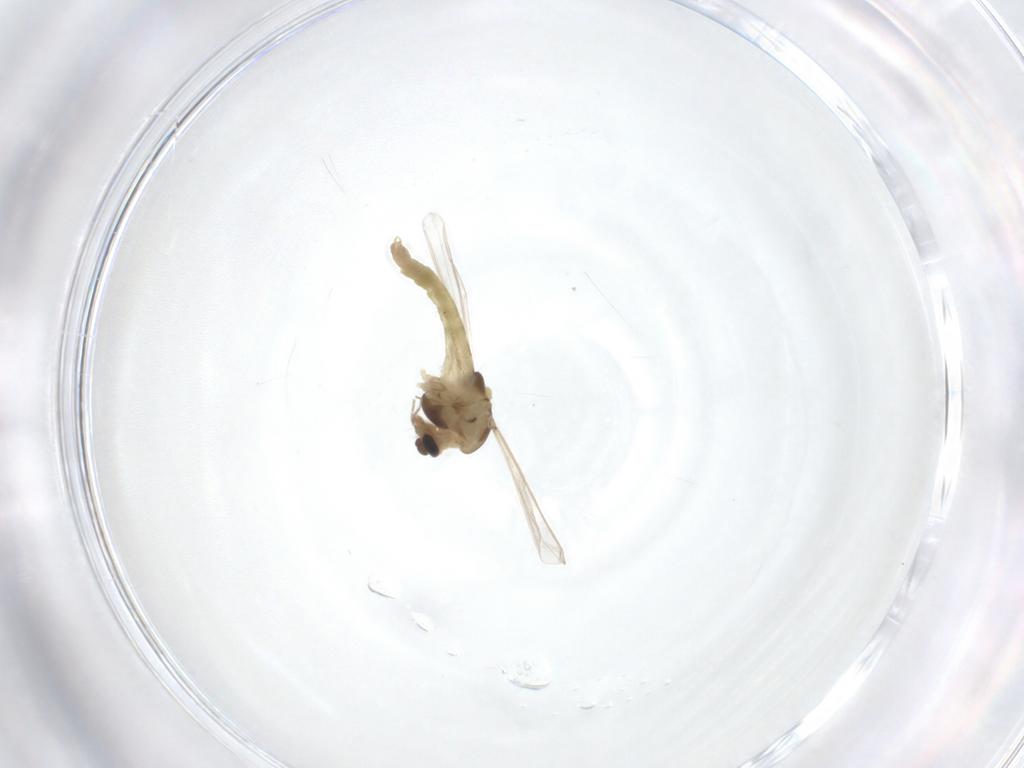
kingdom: Animalia
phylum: Arthropoda
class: Insecta
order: Diptera
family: Chironomidae
